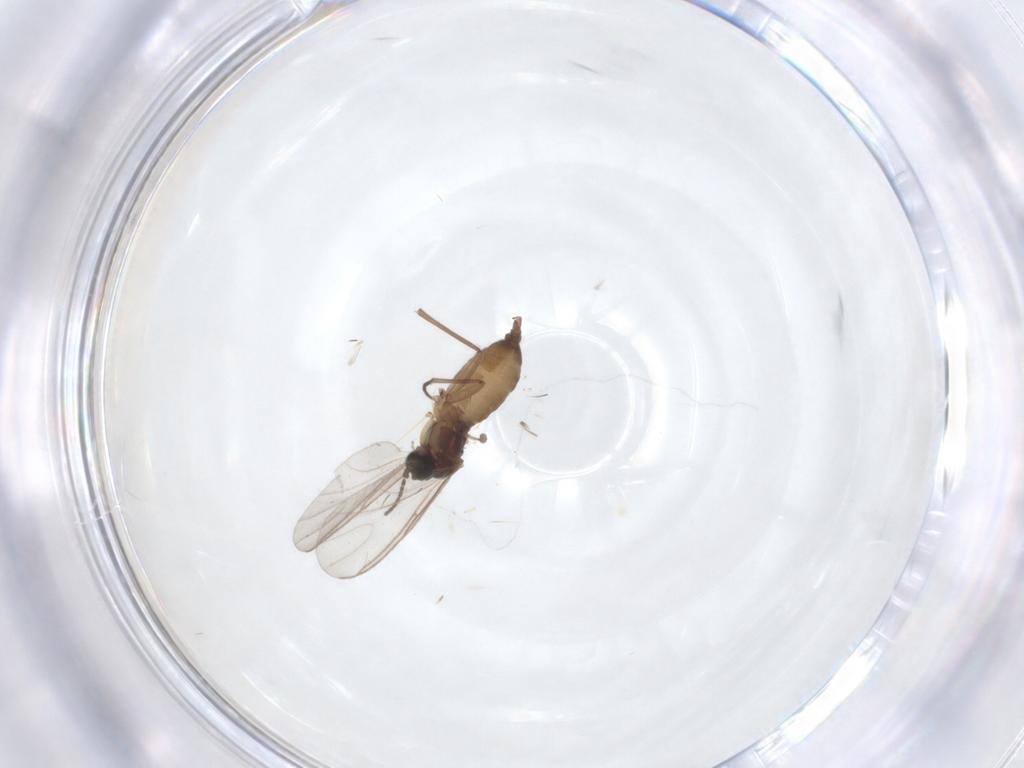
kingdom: Animalia
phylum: Arthropoda
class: Insecta
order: Diptera
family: Sciaridae
